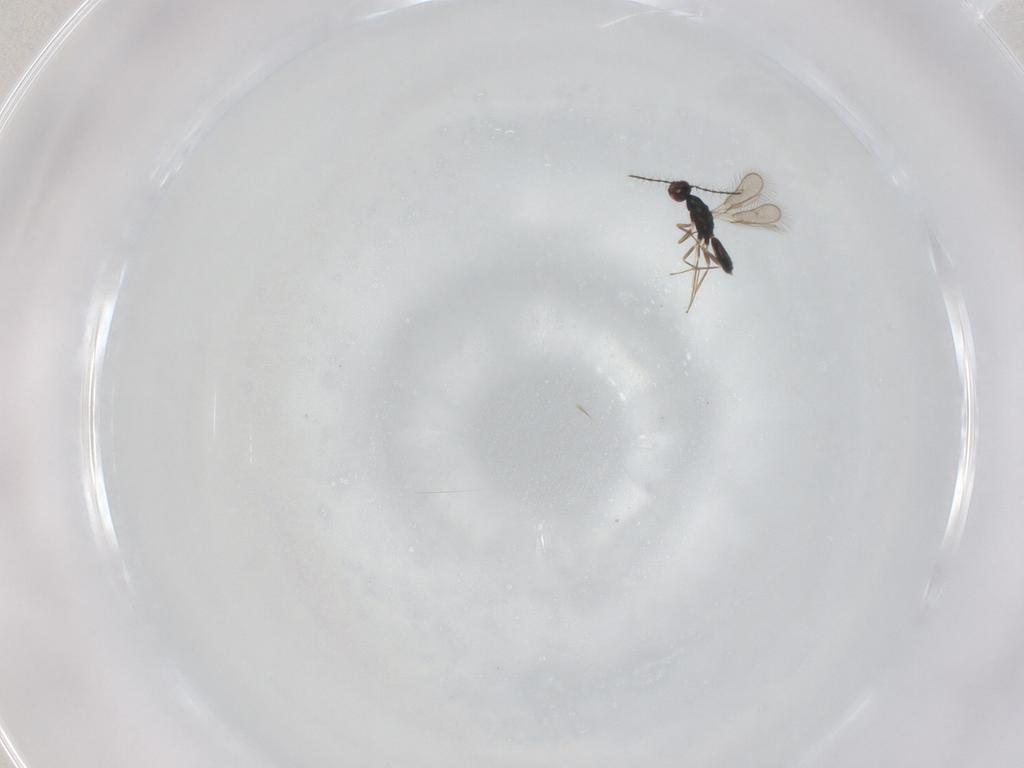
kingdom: Animalia
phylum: Arthropoda
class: Insecta
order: Hymenoptera
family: Pteromalidae
